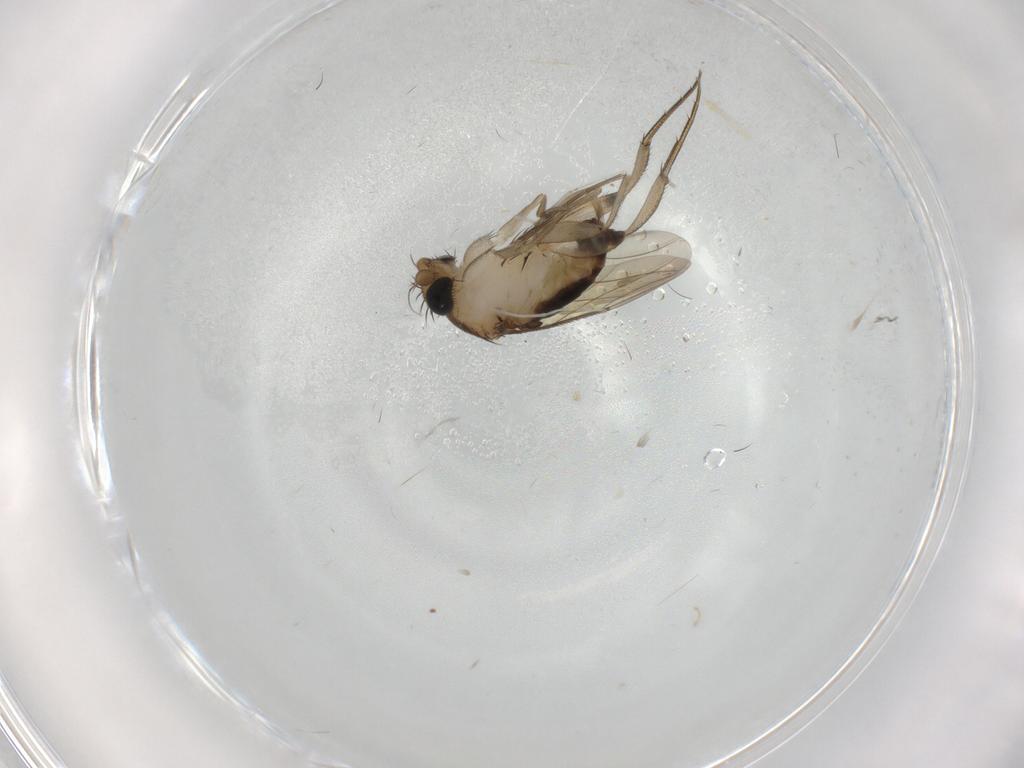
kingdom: Animalia
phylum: Arthropoda
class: Insecta
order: Diptera
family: Phoridae
